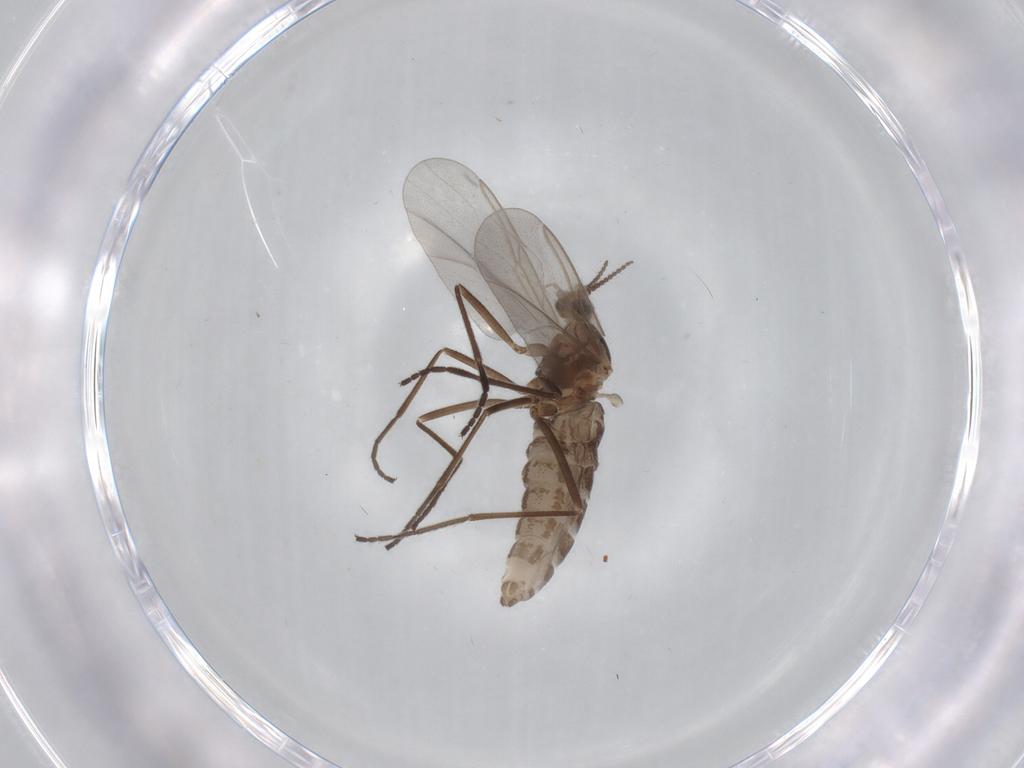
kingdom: Animalia
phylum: Arthropoda
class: Insecta
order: Diptera
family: Cecidomyiidae
